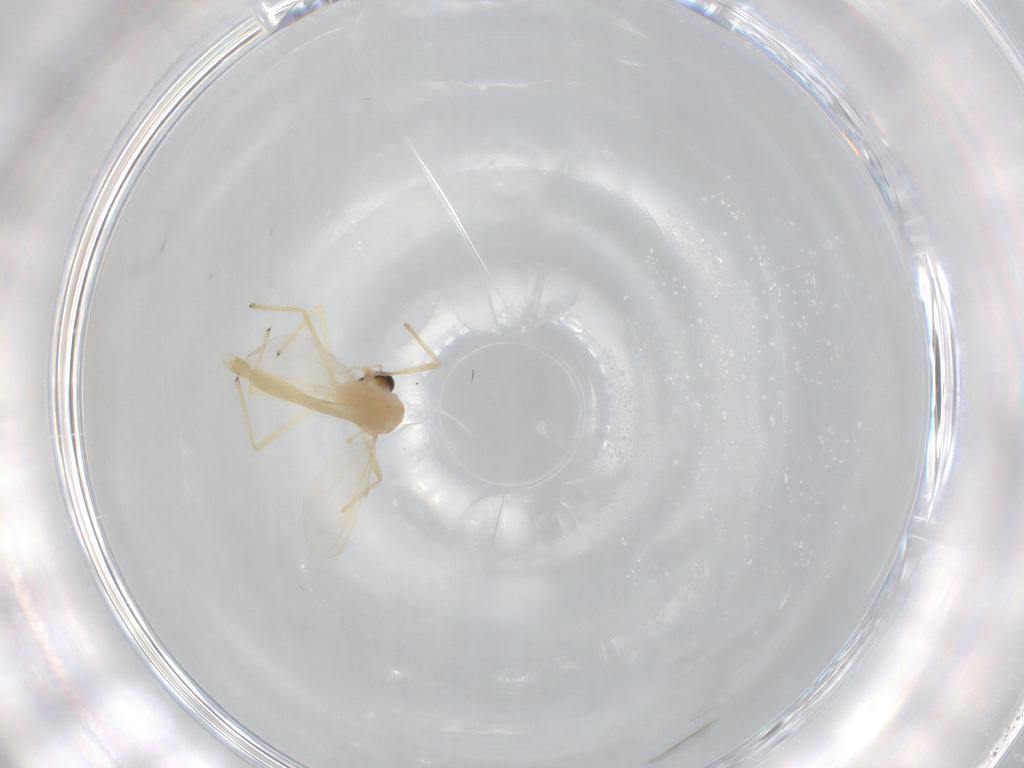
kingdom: Animalia
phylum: Arthropoda
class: Insecta
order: Diptera
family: Chironomidae
